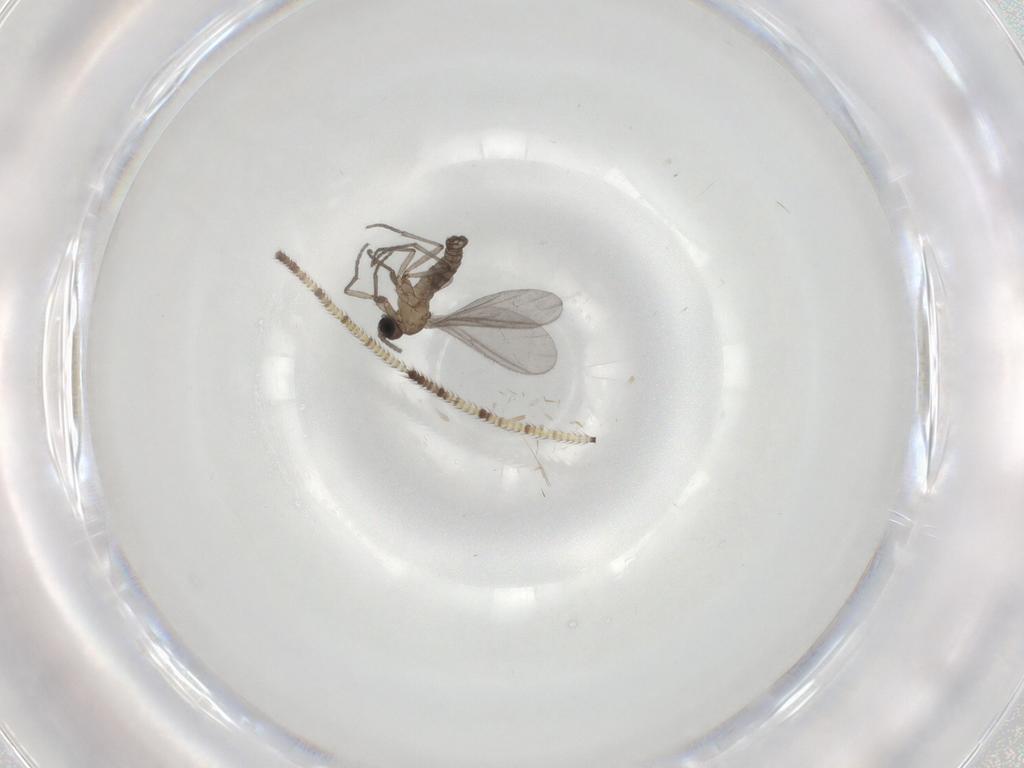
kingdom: Animalia
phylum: Arthropoda
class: Insecta
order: Diptera
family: Sciaridae
